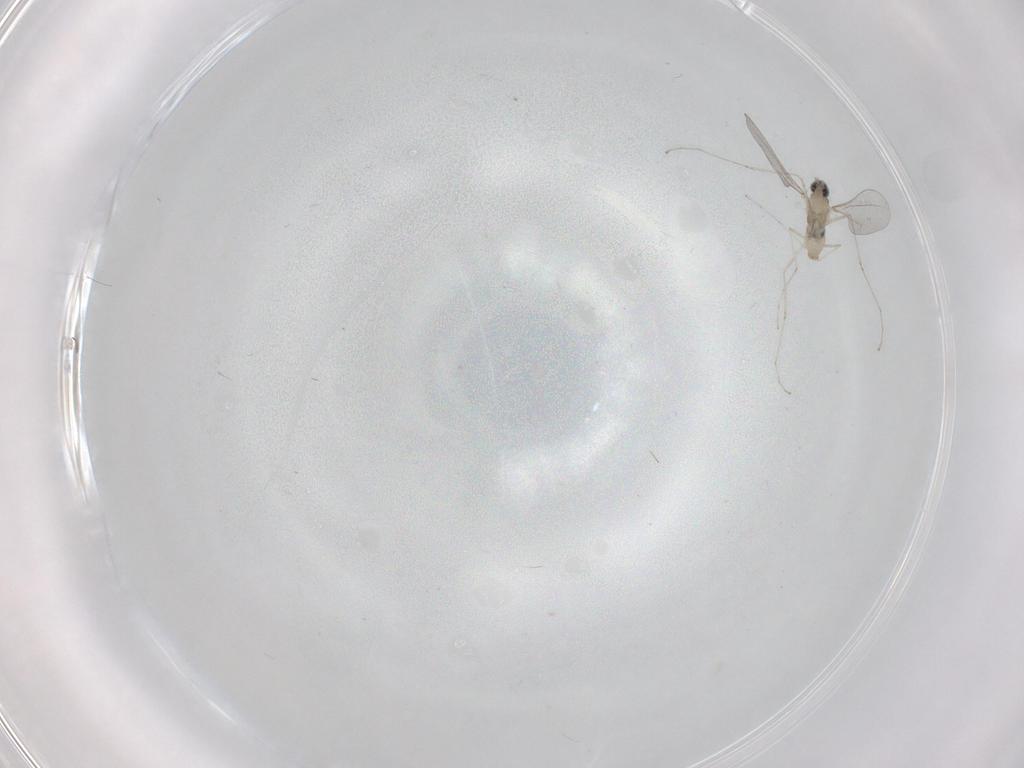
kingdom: Animalia
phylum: Arthropoda
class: Insecta
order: Diptera
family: Cecidomyiidae
